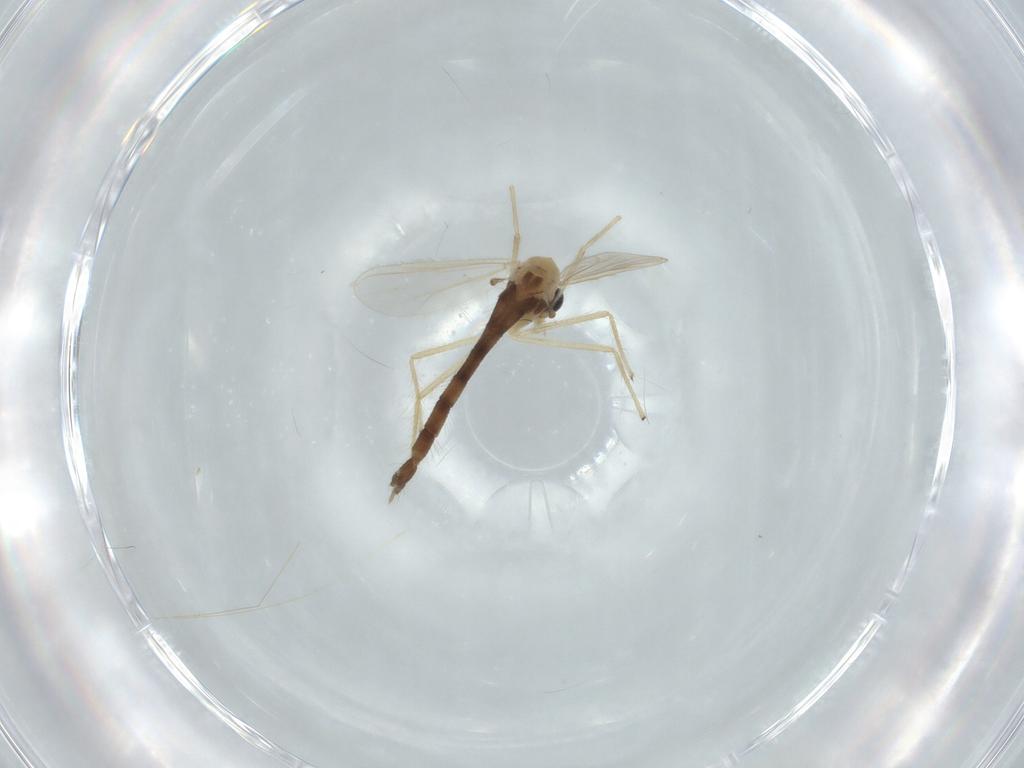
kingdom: Animalia
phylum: Arthropoda
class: Insecta
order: Diptera
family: Chironomidae
